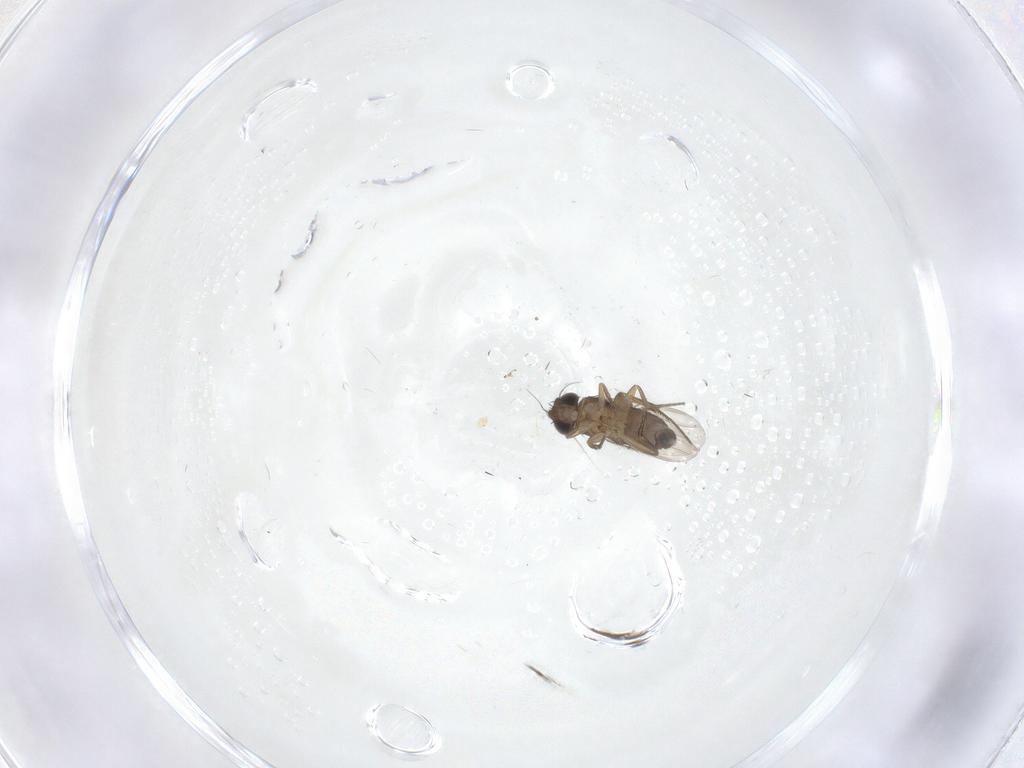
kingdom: Animalia
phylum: Arthropoda
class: Insecta
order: Diptera
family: Phoridae
